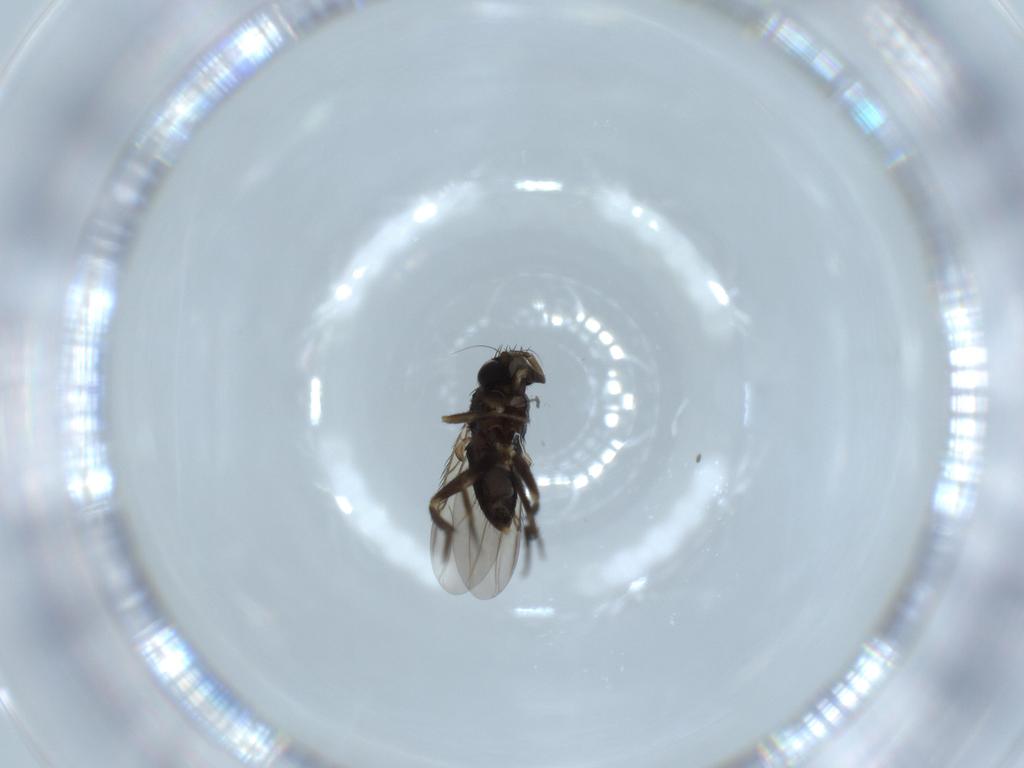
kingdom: Animalia
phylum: Arthropoda
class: Insecta
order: Diptera
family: Phoridae
